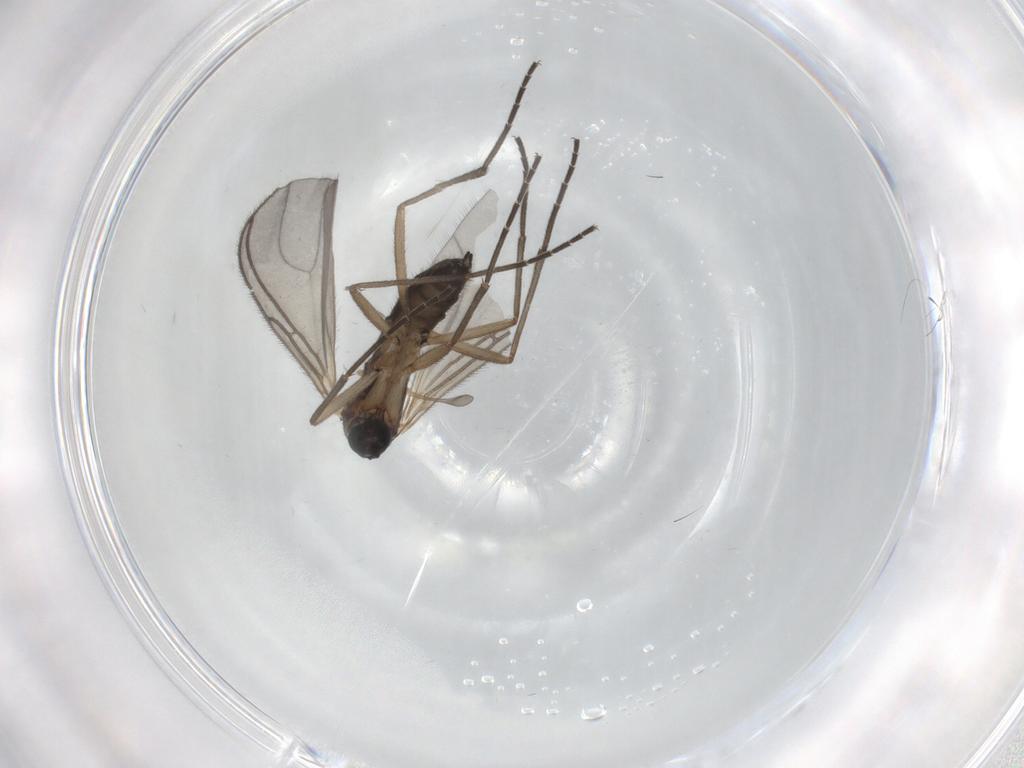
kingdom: Animalia
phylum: Arthropoda
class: Insecta
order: Diptera
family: Sciaridae
